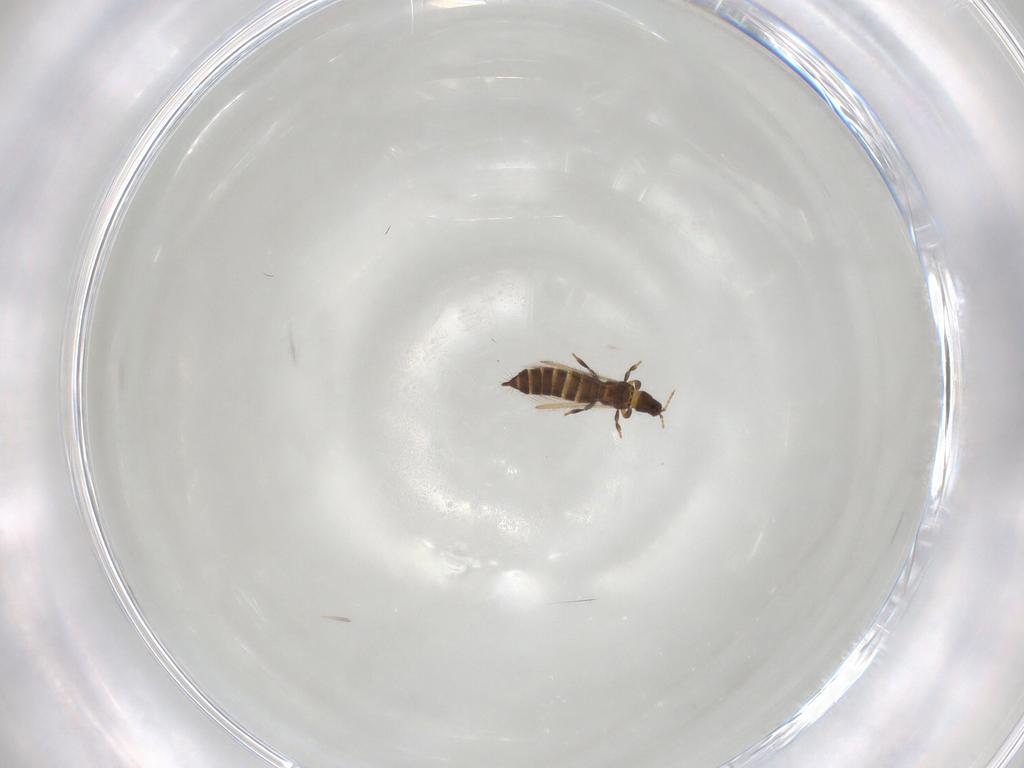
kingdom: Animalia
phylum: Arthropoda
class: Insecta
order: Thysanoptera
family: Thripidae
